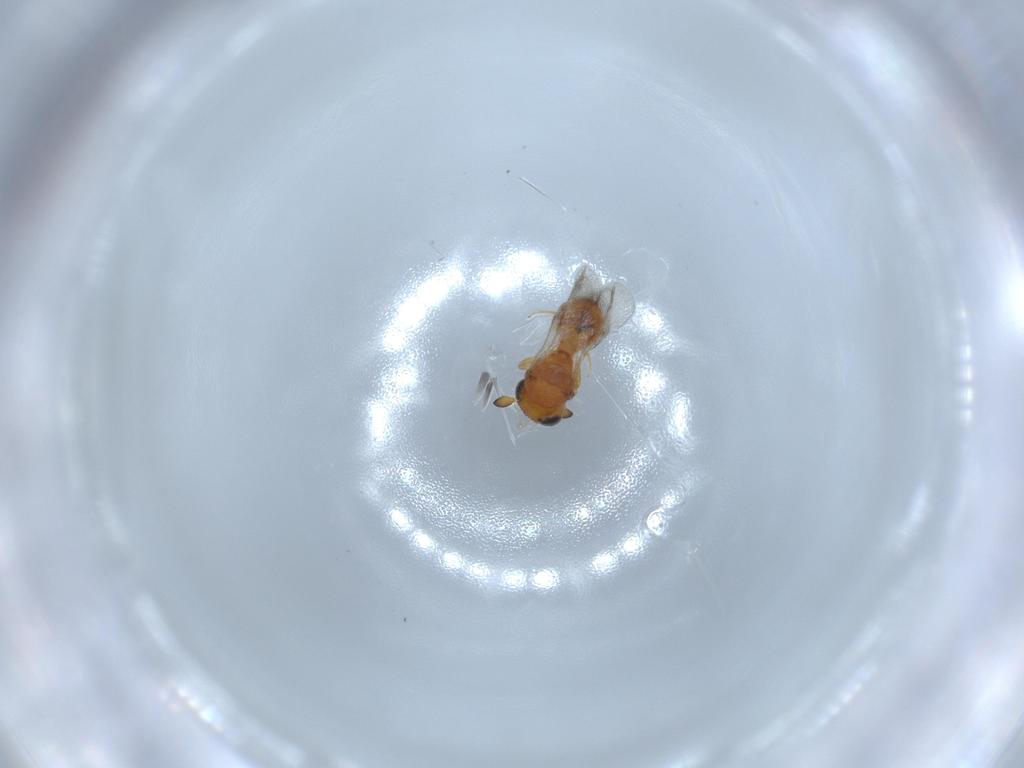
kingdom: Animalia
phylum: Arthropoda
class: Insecta
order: Hymenoptera
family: Scelionidae
